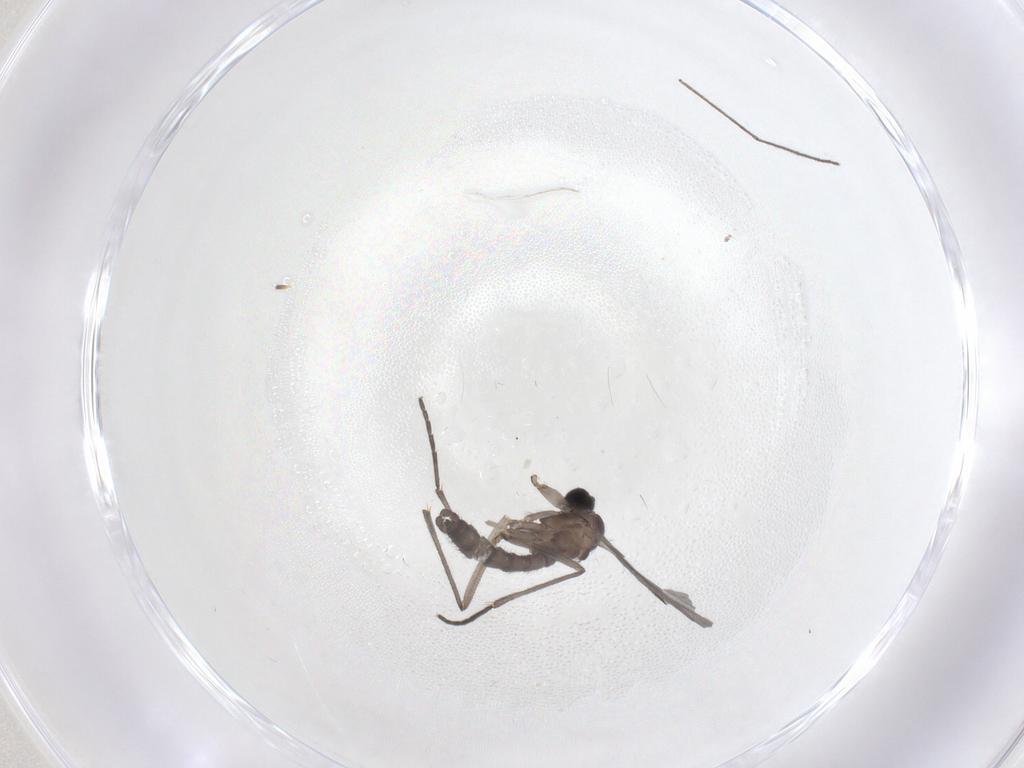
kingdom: Animalia
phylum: Arthropoda
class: Insecta
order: Diptera
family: Sciaridae
